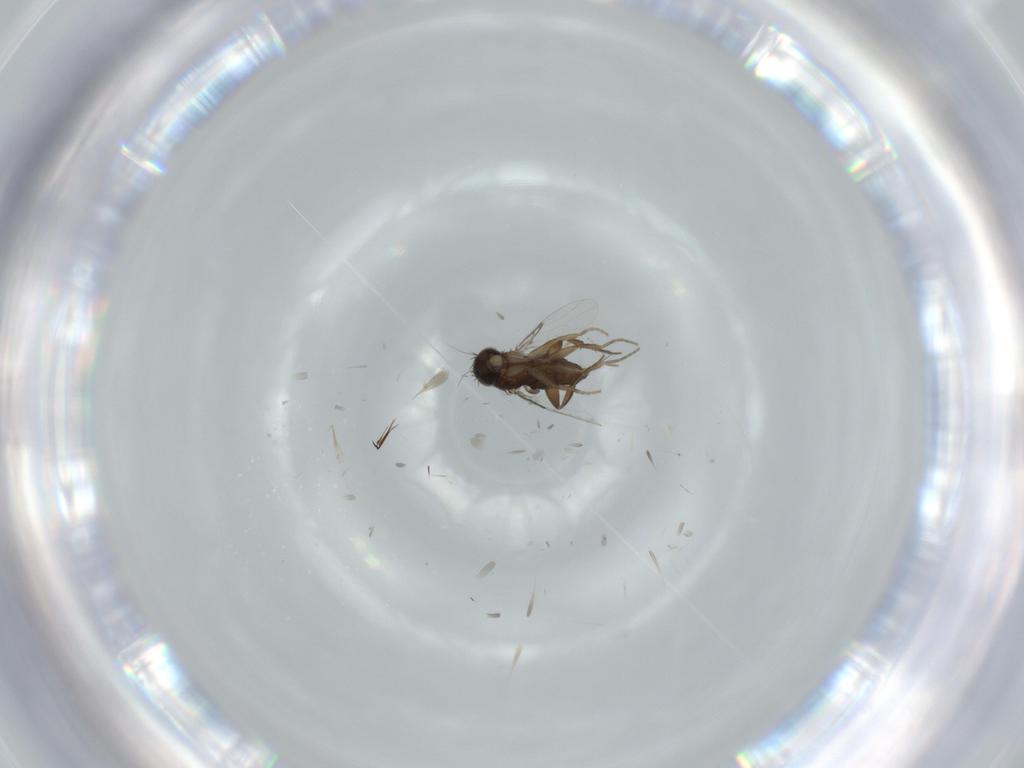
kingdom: Animalia
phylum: Arthropoda
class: Insecta
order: Diptera
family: Phoridae
